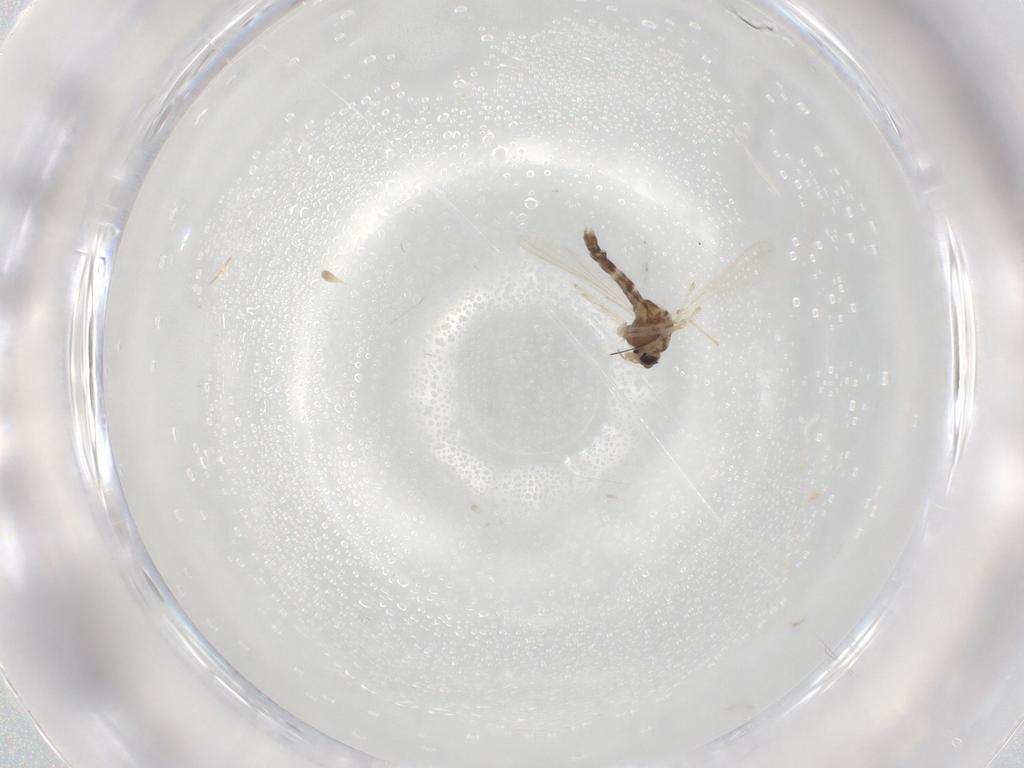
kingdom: Animalia
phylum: Arthropoda
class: Insecta
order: Diptera
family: Chironomidae
